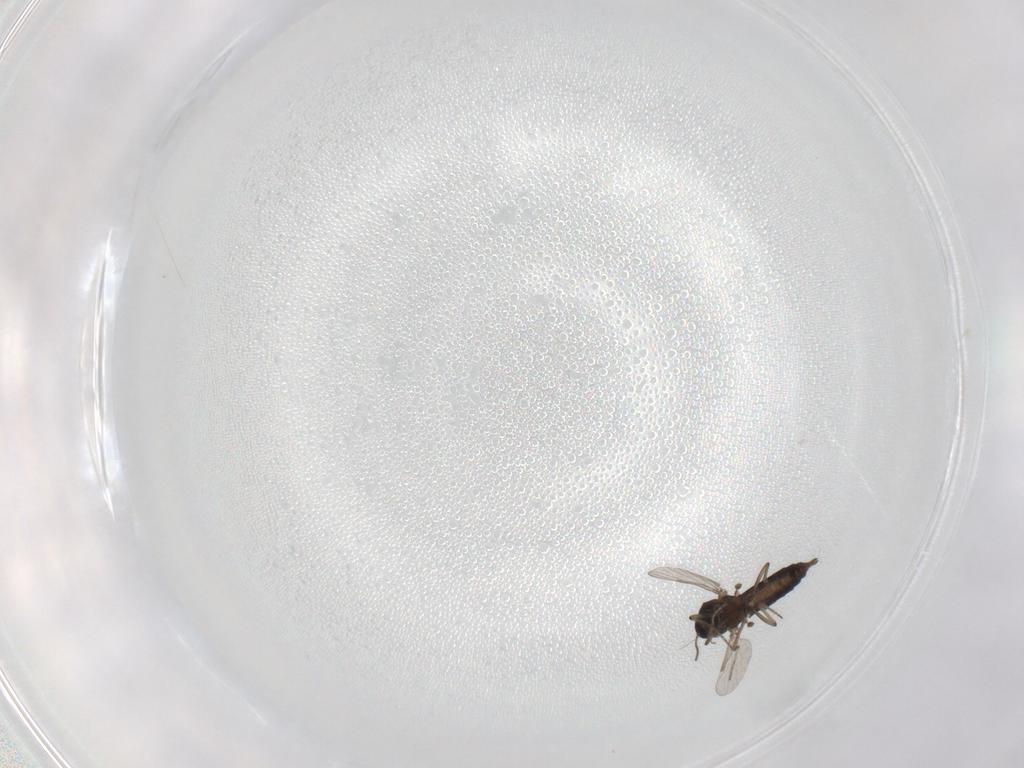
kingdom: Animalia
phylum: Arthropoda
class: Insecta
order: Diptera
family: Ceratopogonidae
